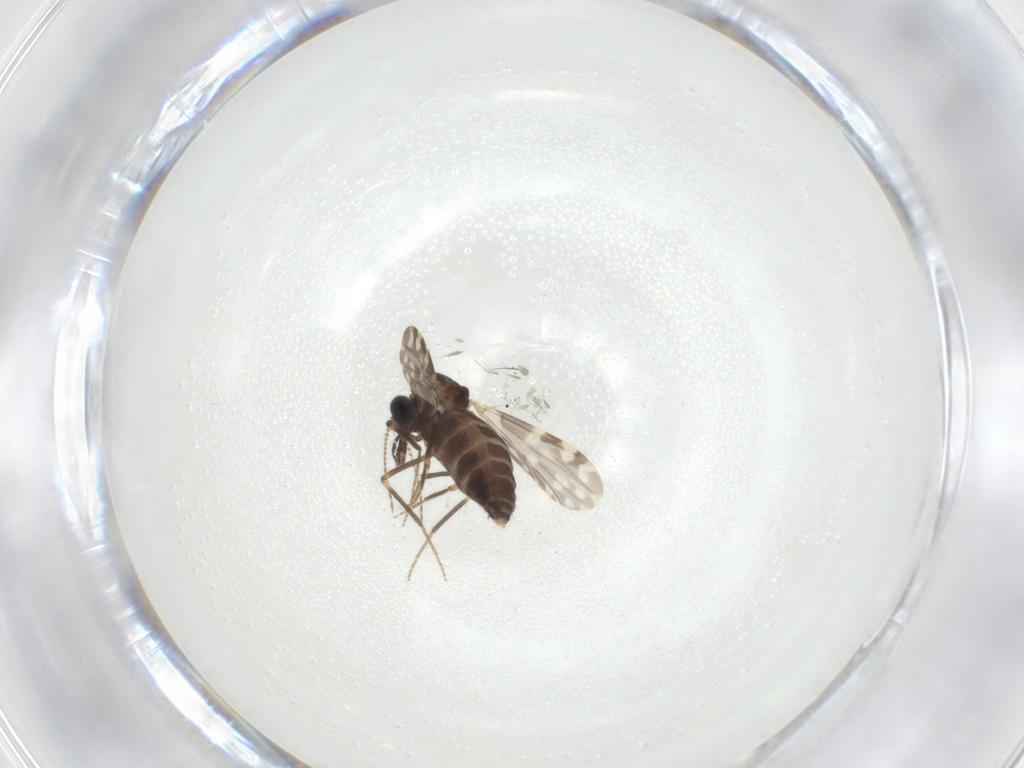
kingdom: Animalia
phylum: Arthropoda
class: Insecta
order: Diptera
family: Ceratopogonidae
